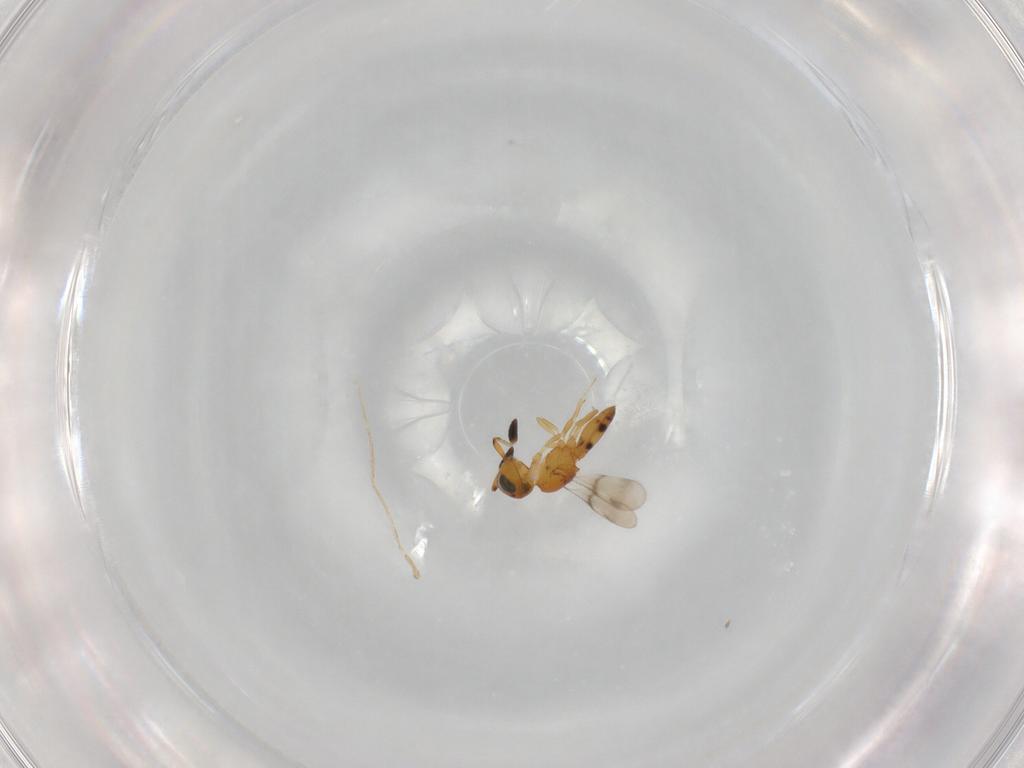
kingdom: Animalia
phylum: Arthropoda
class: Insecta
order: Hymenoptera
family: Scelionidae
